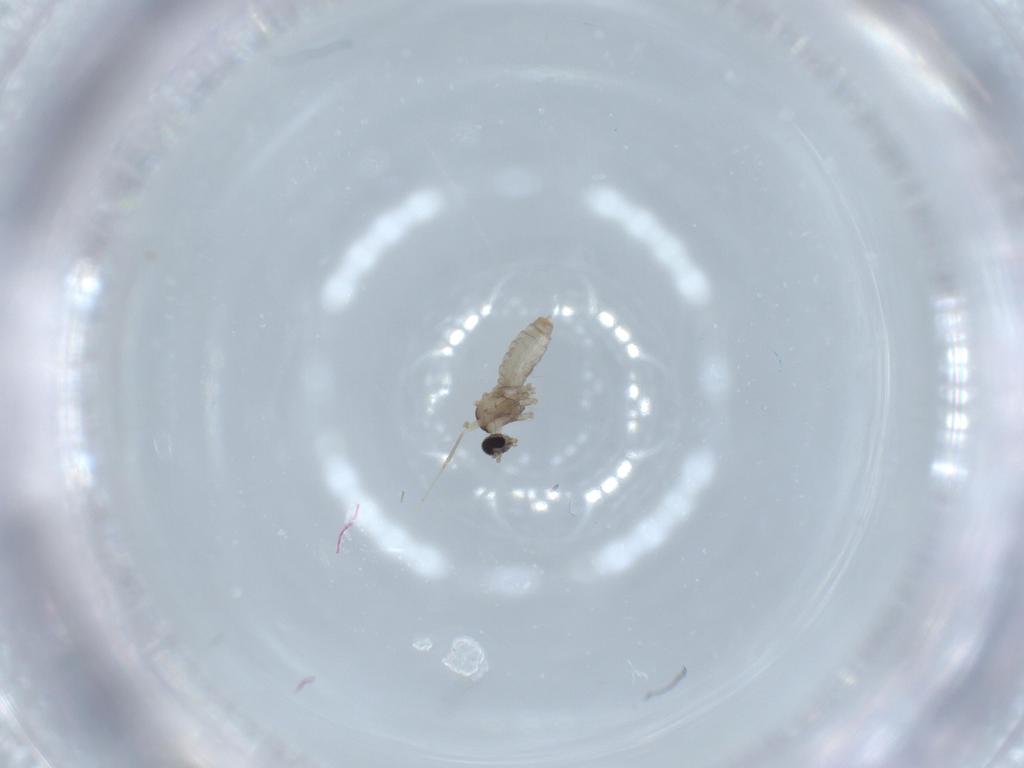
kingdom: Animalia
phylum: Arthropoda
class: Insecta
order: Diptera
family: Cecidomyiidae
